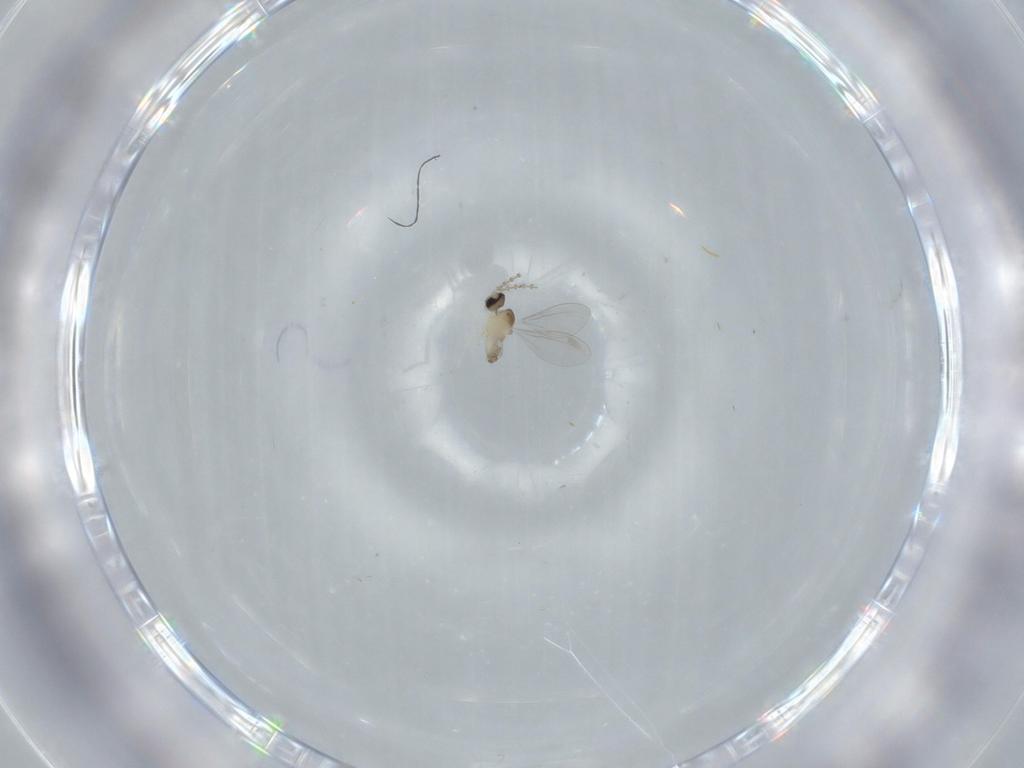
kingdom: Animalia
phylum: Arthropoda
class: Insecta
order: Diptera
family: Cecidomyiidae
